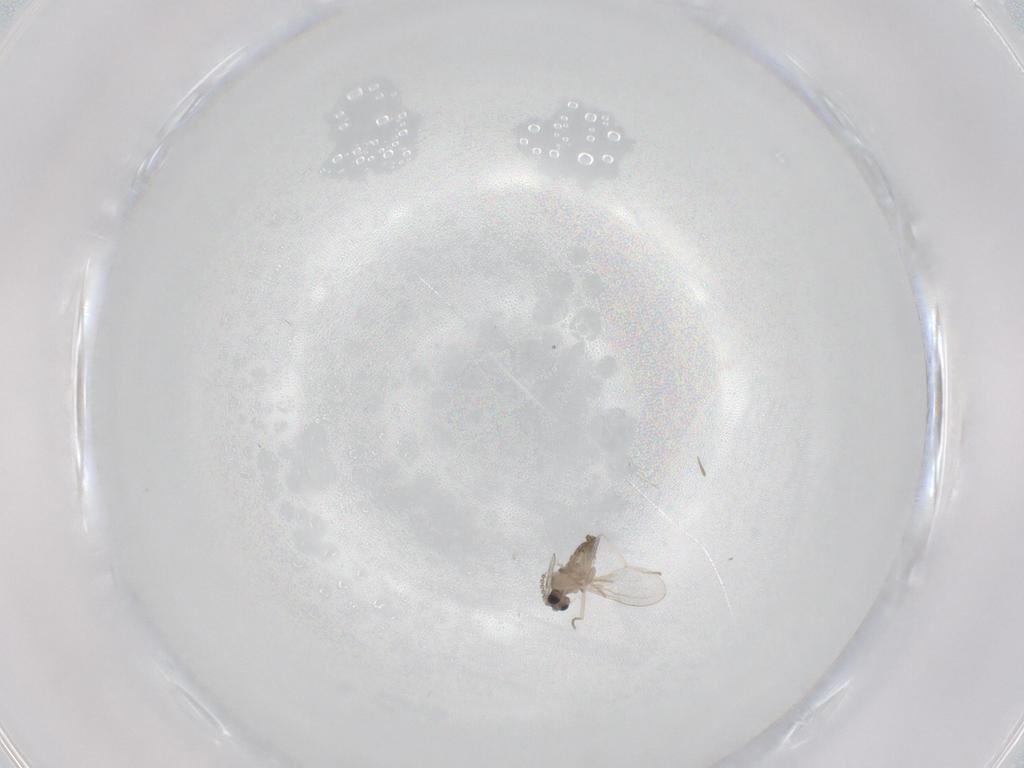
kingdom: Animalia
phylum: Arthropoda
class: Insecta
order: Diptera
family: Cecidomyiidae
